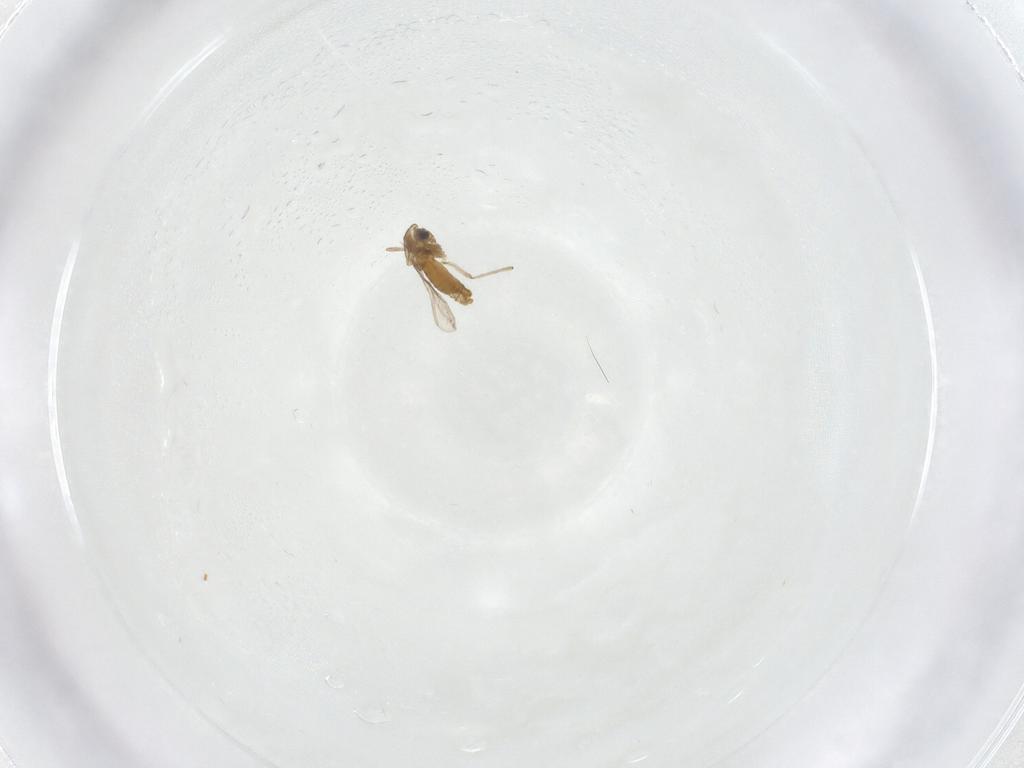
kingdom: Animalia
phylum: Arthropoda
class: Insecta
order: Diptera
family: Chironomidae
